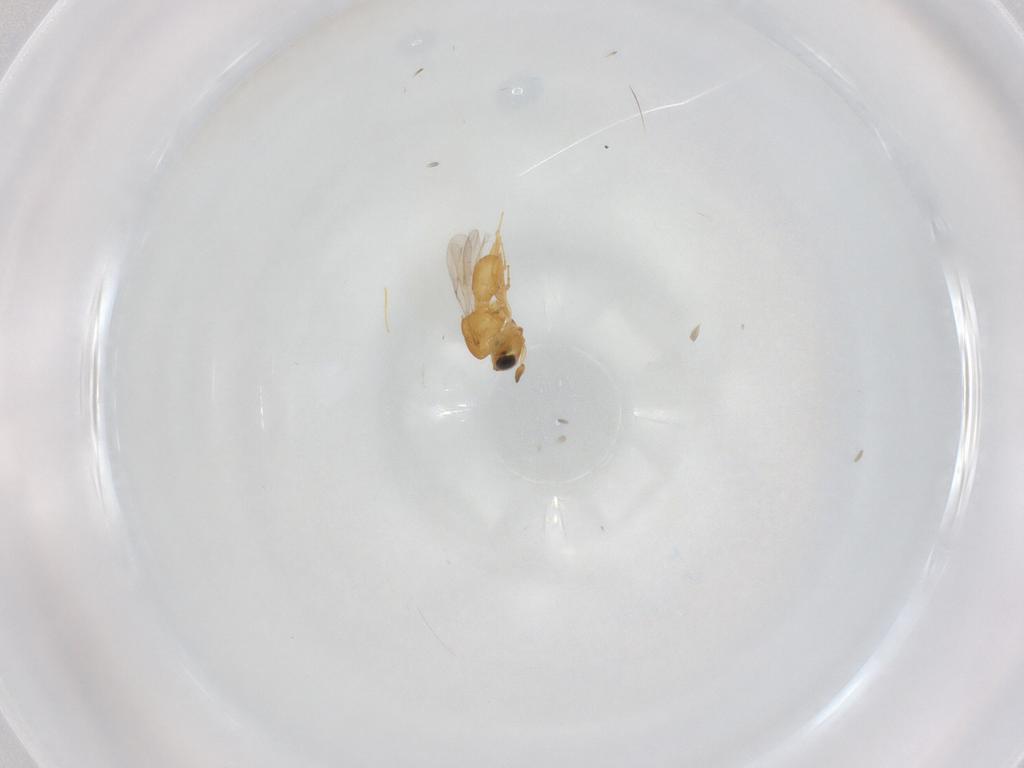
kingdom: Animalia
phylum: Arthropoda
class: Insecta
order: Hymenoptera
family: Scelionidae
